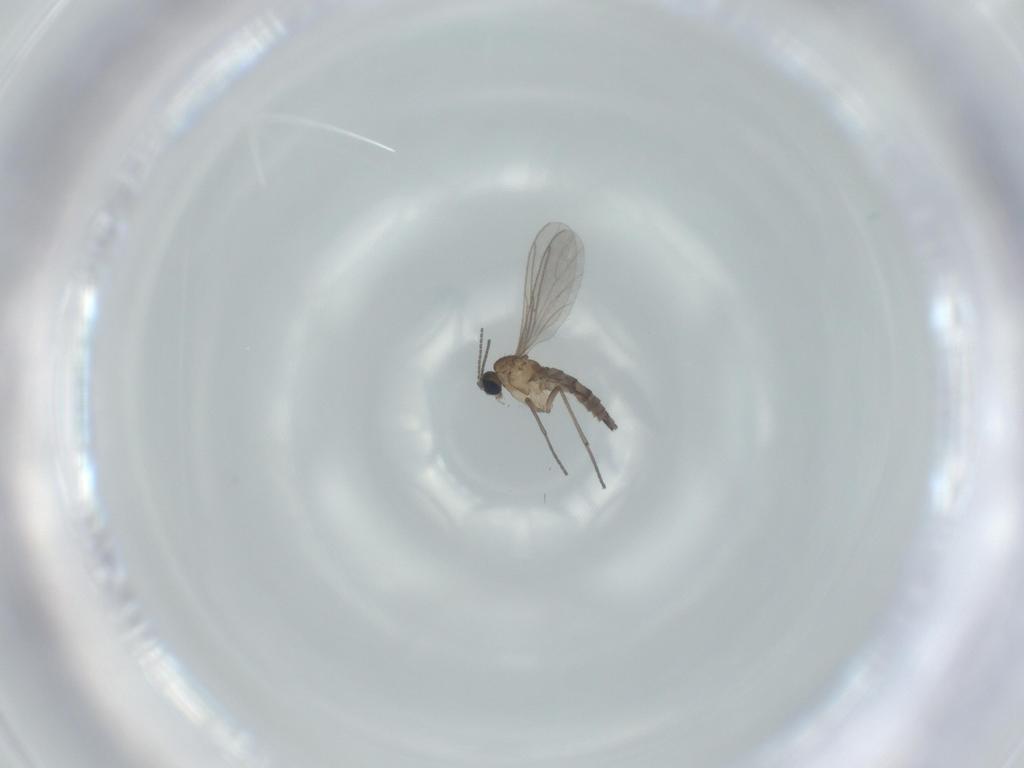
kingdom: Animalia
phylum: Arthropoda
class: Insecta
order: Diptera
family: Sciaridae
